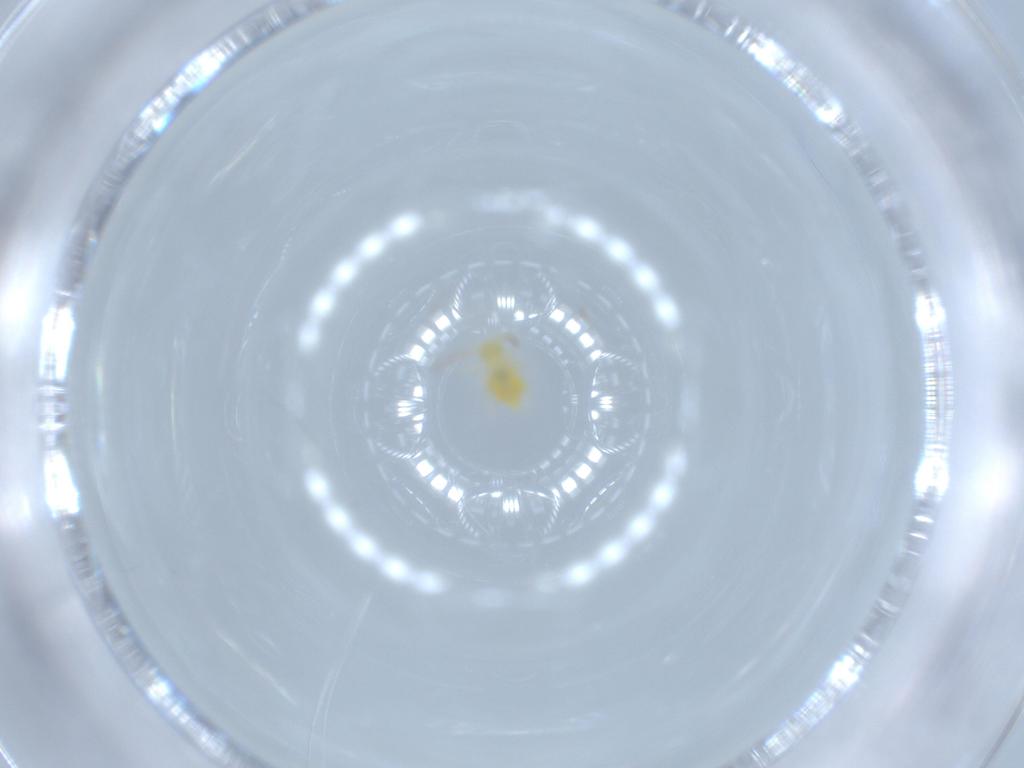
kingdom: Animalia
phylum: Arthropoda
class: Collembola
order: Symphypleona
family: Bourletiellidae
